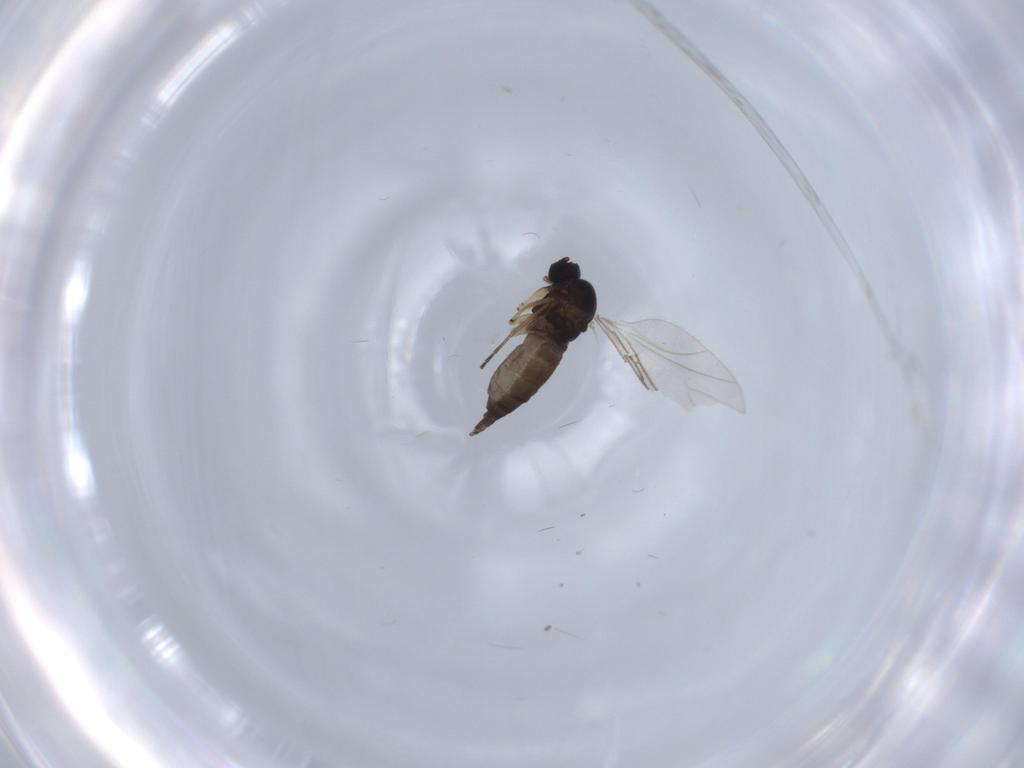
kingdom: Animalia
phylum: Arthropoda
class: Insecta
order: Diptera
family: Sciaridae
